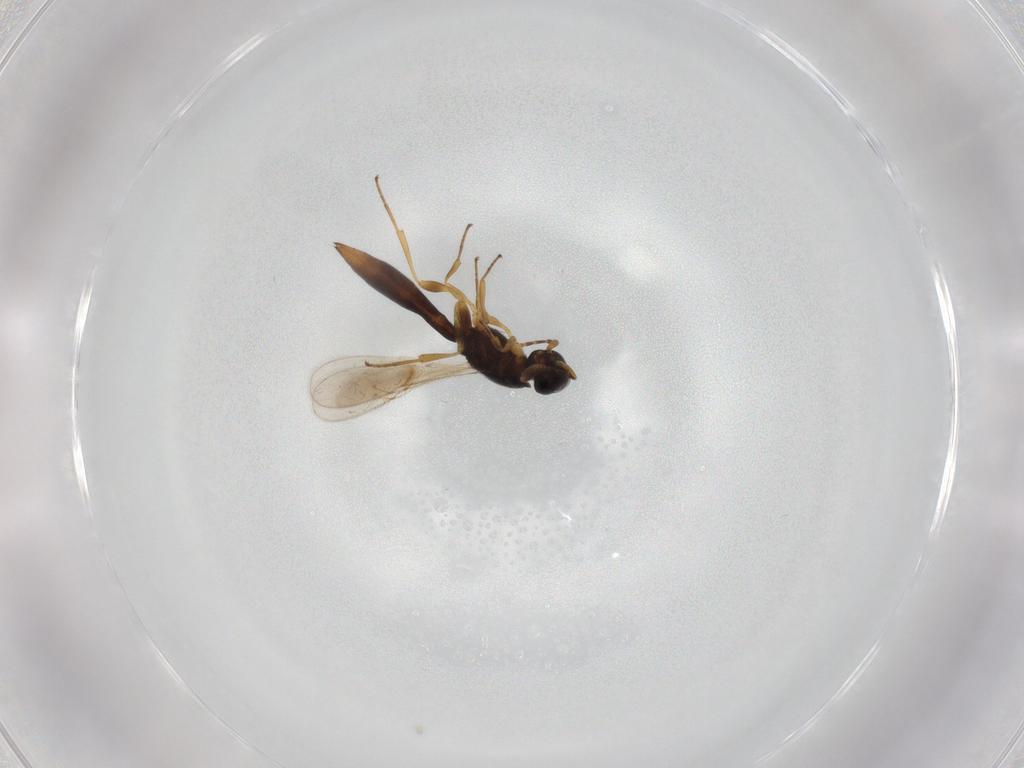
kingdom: Animalia
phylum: Arthropoda
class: Insecta
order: Hymenoptera
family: Scelionidae
